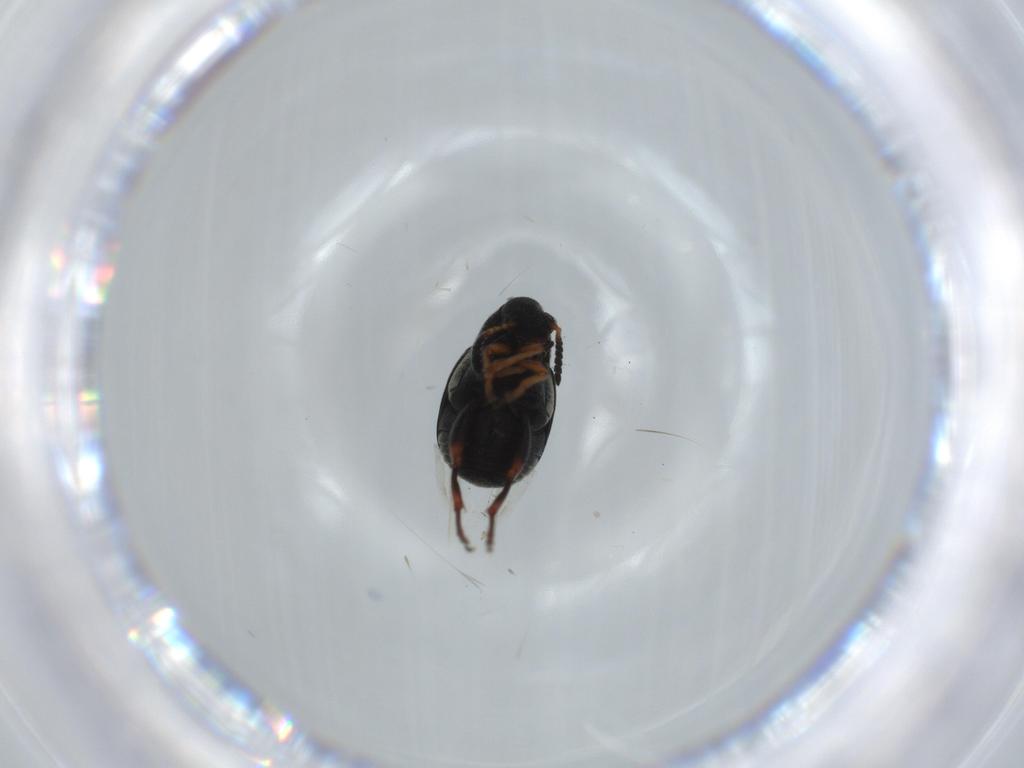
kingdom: Animalia
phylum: Arthropoda
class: Insecta
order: Coleoptera
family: Chrysomelidae
